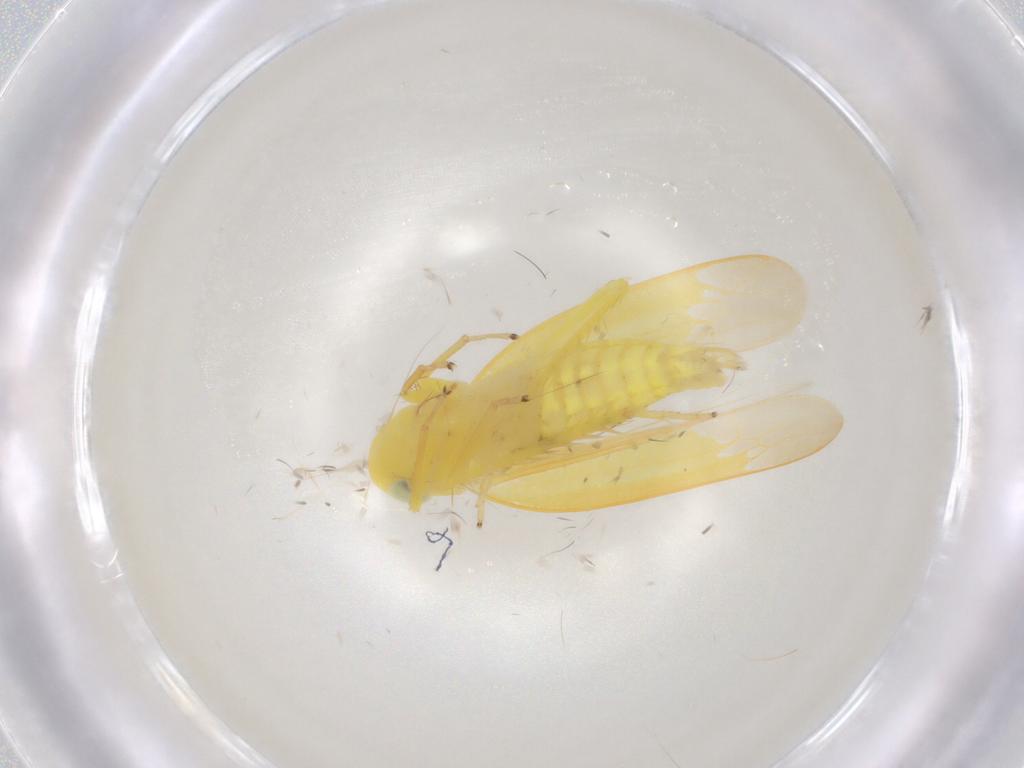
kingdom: Animalia
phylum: Arthropoda
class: Insecta
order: Hemiptera
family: Cicadellidae
